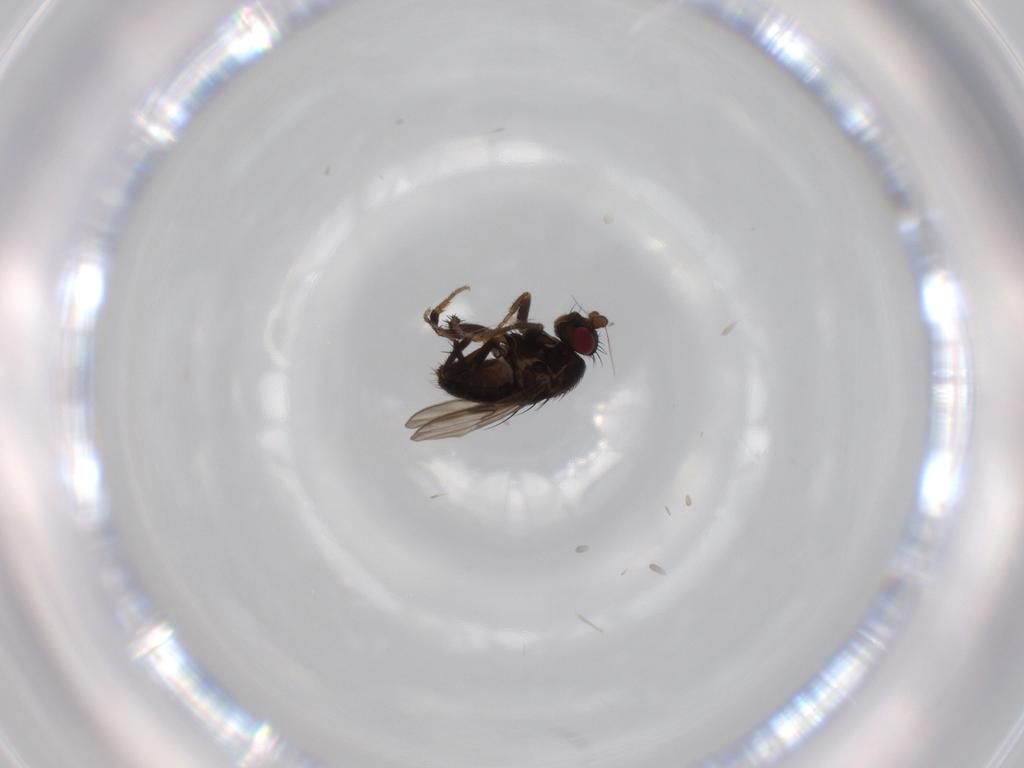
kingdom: Animalia
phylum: Arthropoda
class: Insecta
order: Diptera
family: Sphaeroceridae
